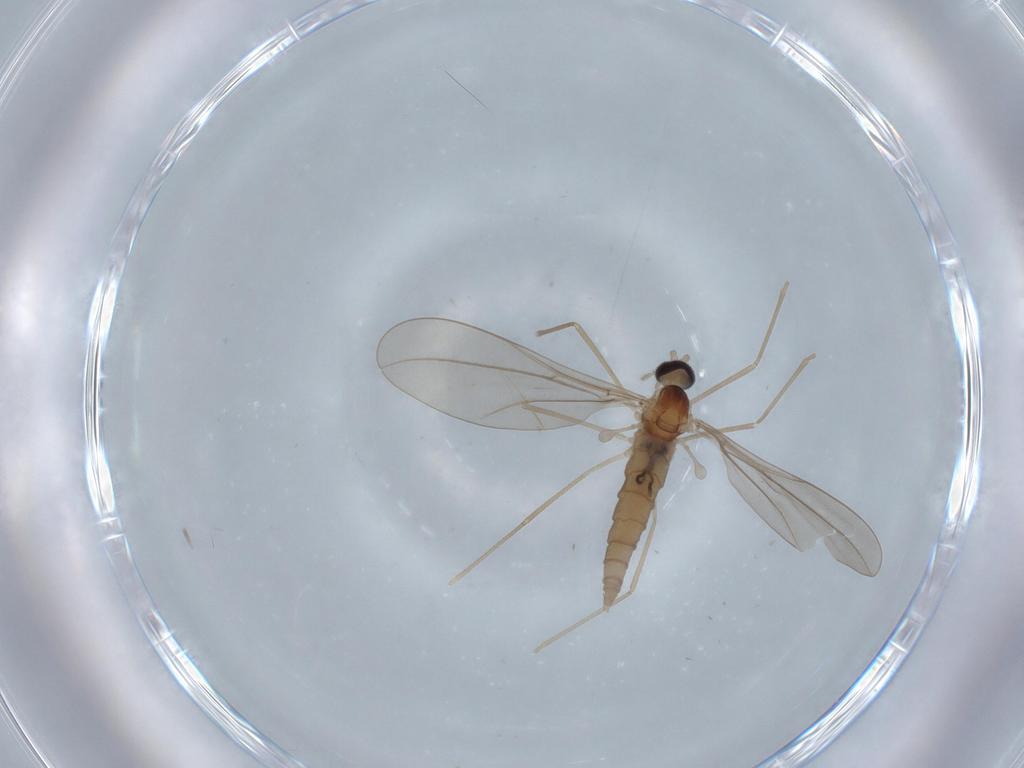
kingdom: Animalia
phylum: Arthropoda
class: Insecta
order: Diptera
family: Cecidomyiidae
